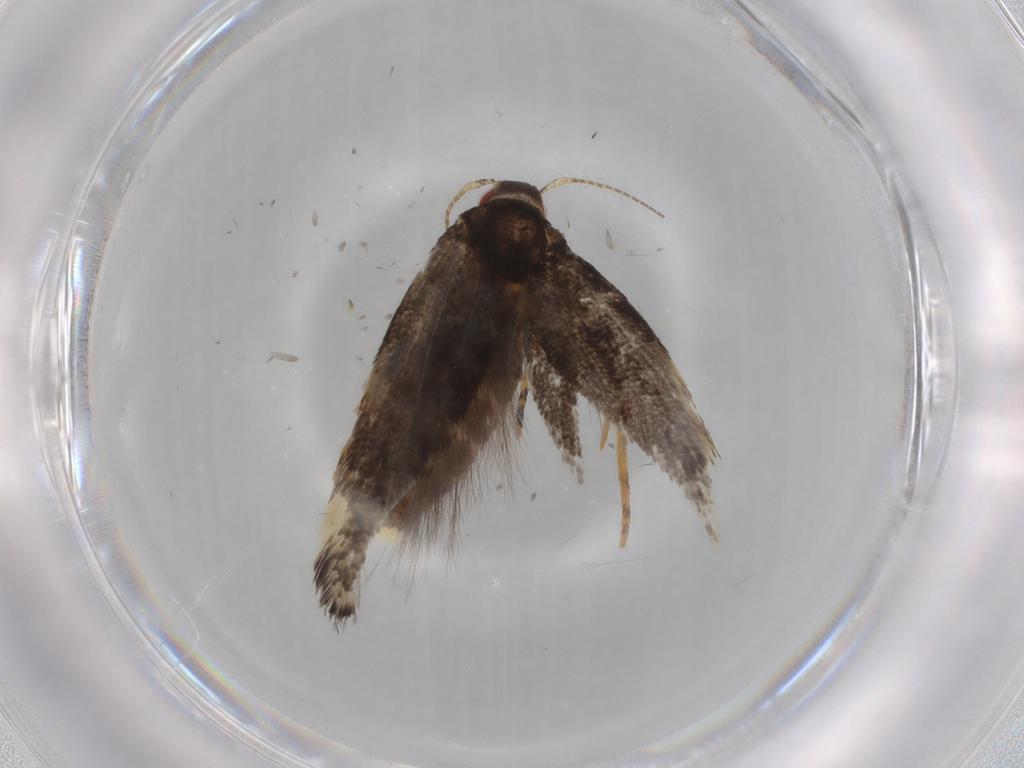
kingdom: Animalia
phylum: Arthropoda
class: Insecta
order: Lepidoptera
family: Cosmopterigidae
